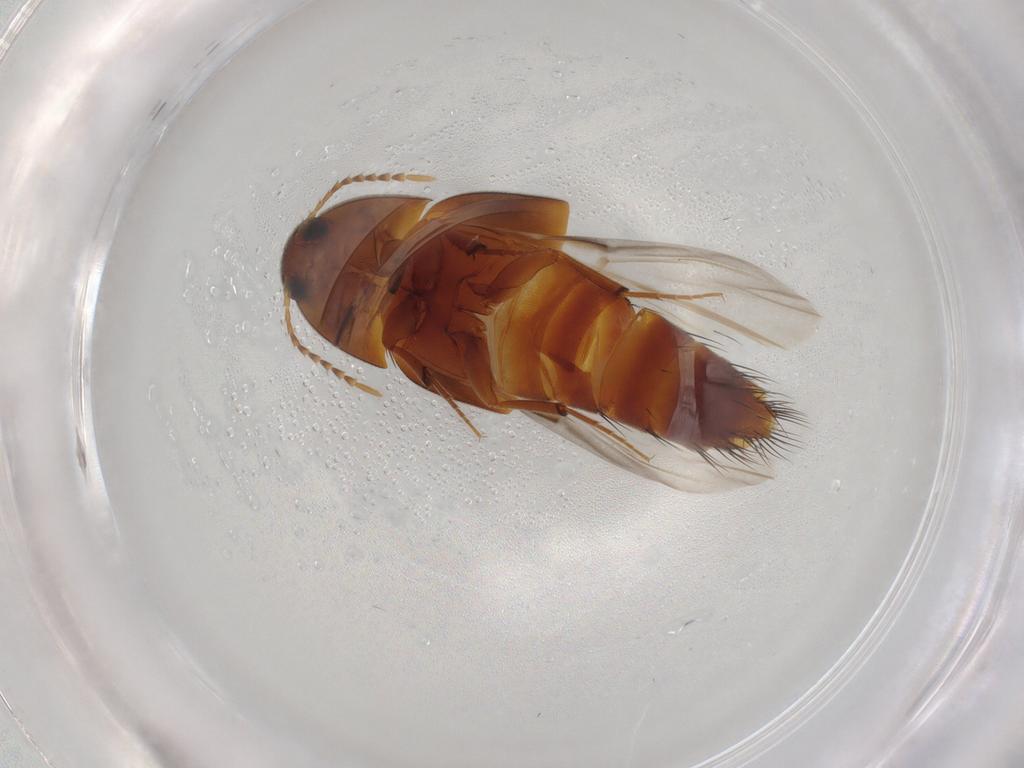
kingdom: Animalia
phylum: Arthropoda
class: Insecta
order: Coleoptera
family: Staphylinidae
